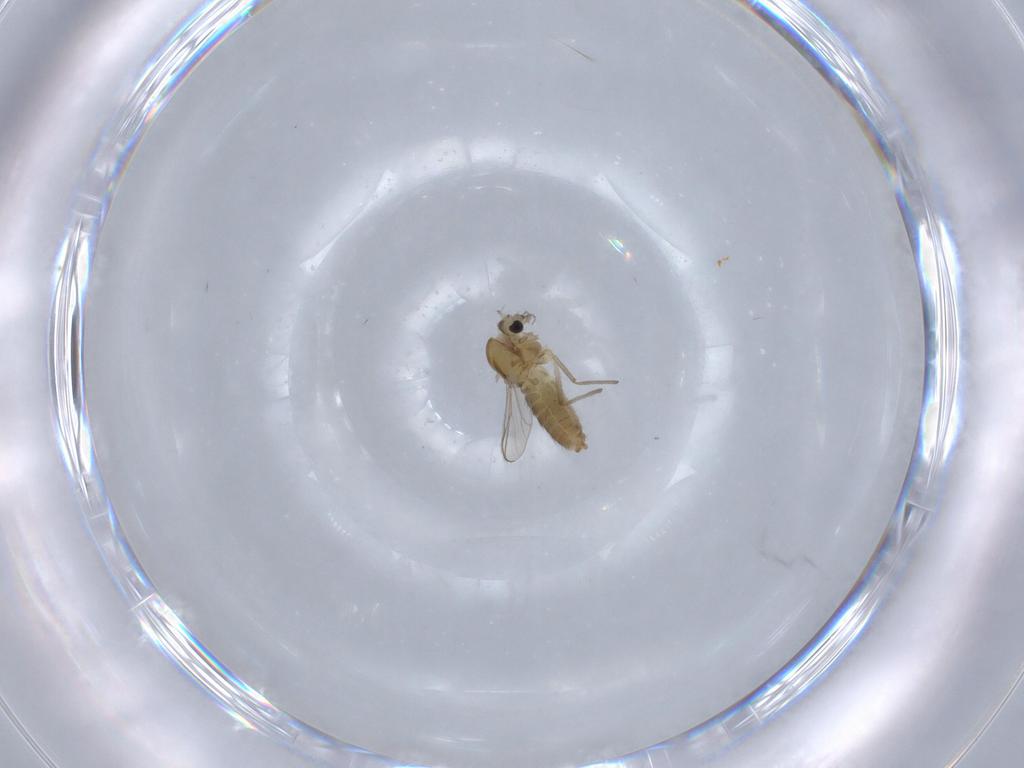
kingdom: Animalia
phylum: Arthropoda
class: Insecta
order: Diptera
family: Chironomidae
